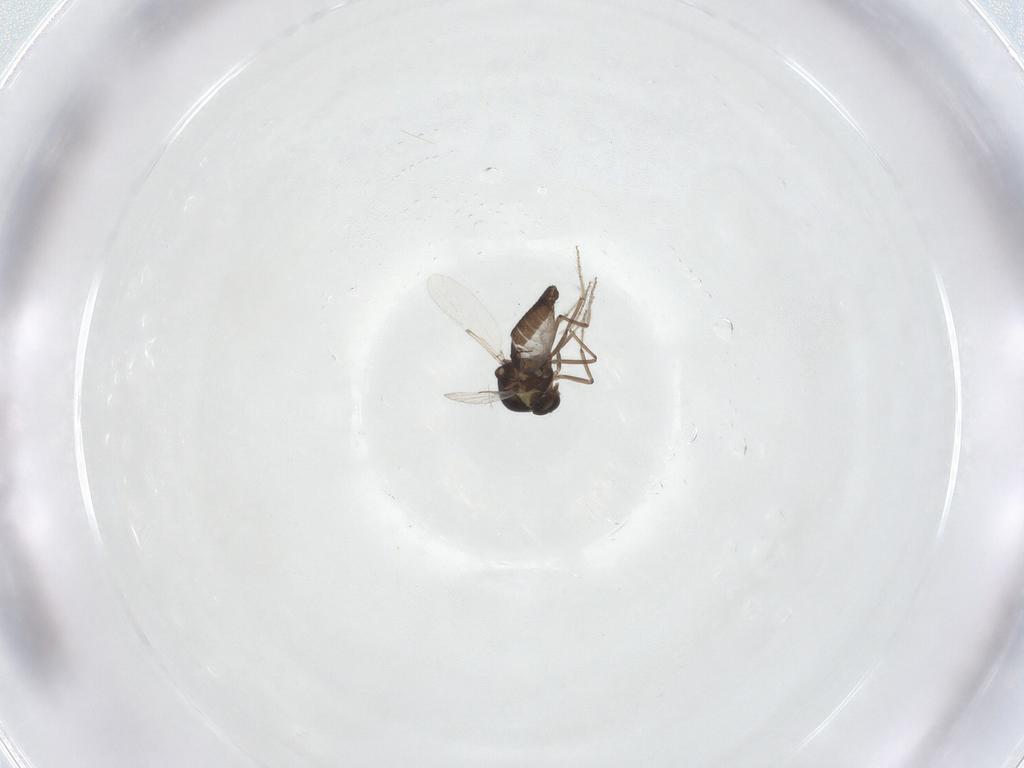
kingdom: Animalia
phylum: Arthropoda
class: Insecta
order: Diptera
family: Ceratopogonidae
